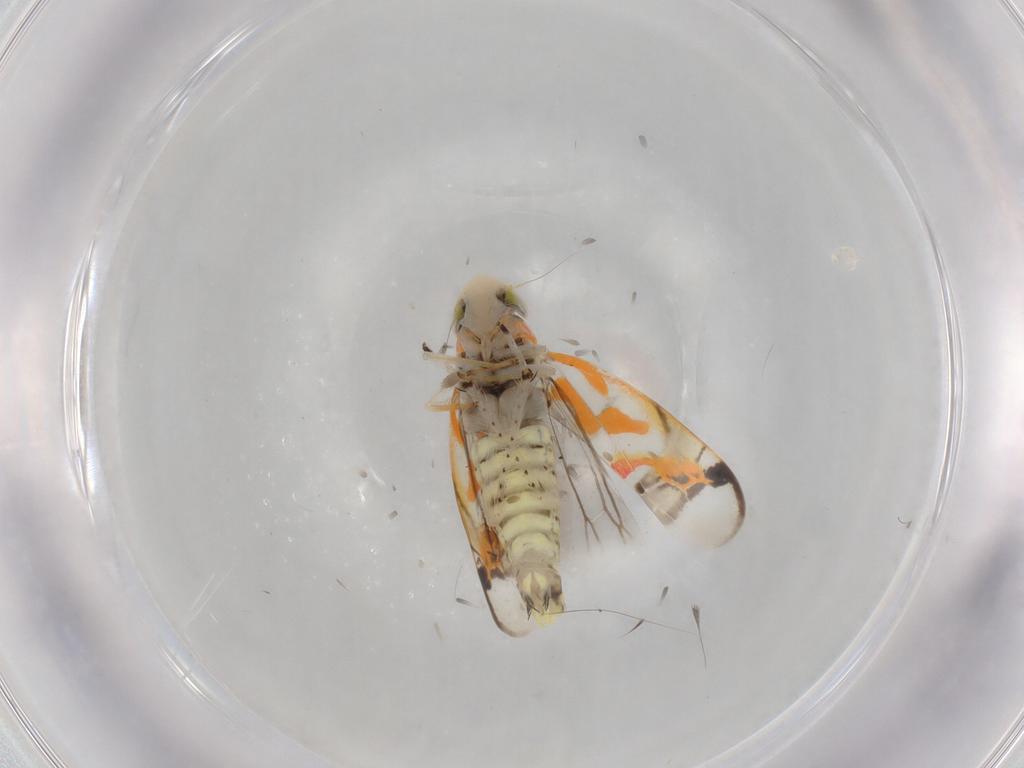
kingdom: Animalia
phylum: Arthropoda
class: Insecta
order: Hemiptera
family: Cicadellidae
